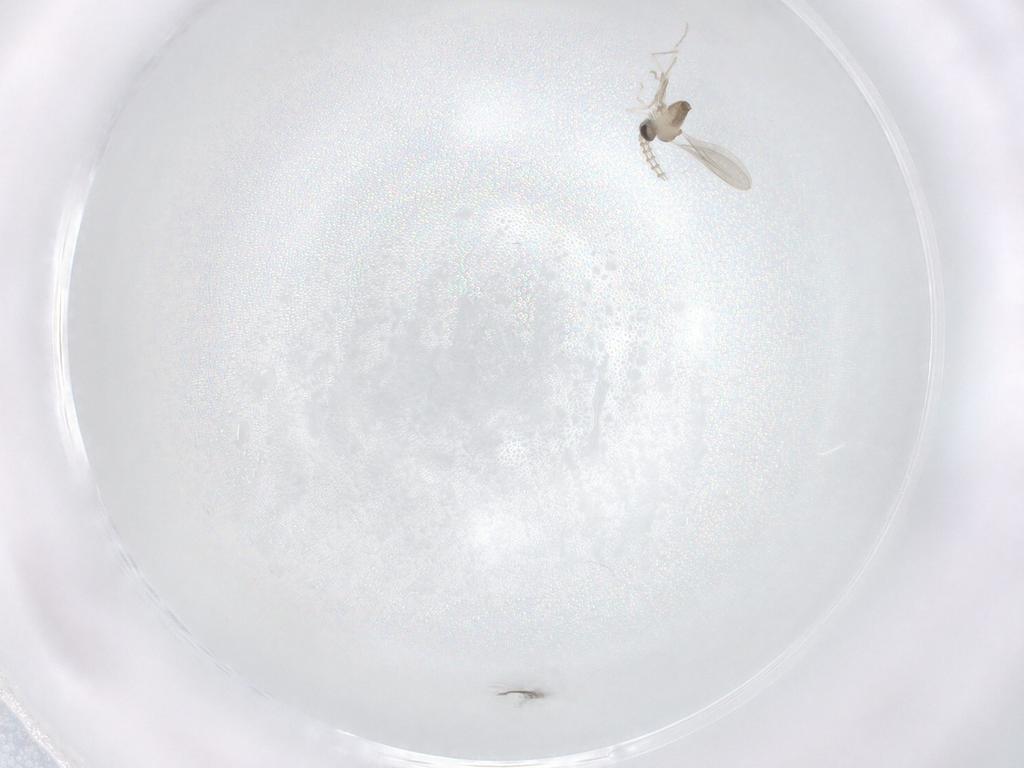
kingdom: Animalia
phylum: Arthropoda
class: Insecta
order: Diptera
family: Cecidomyiidae
